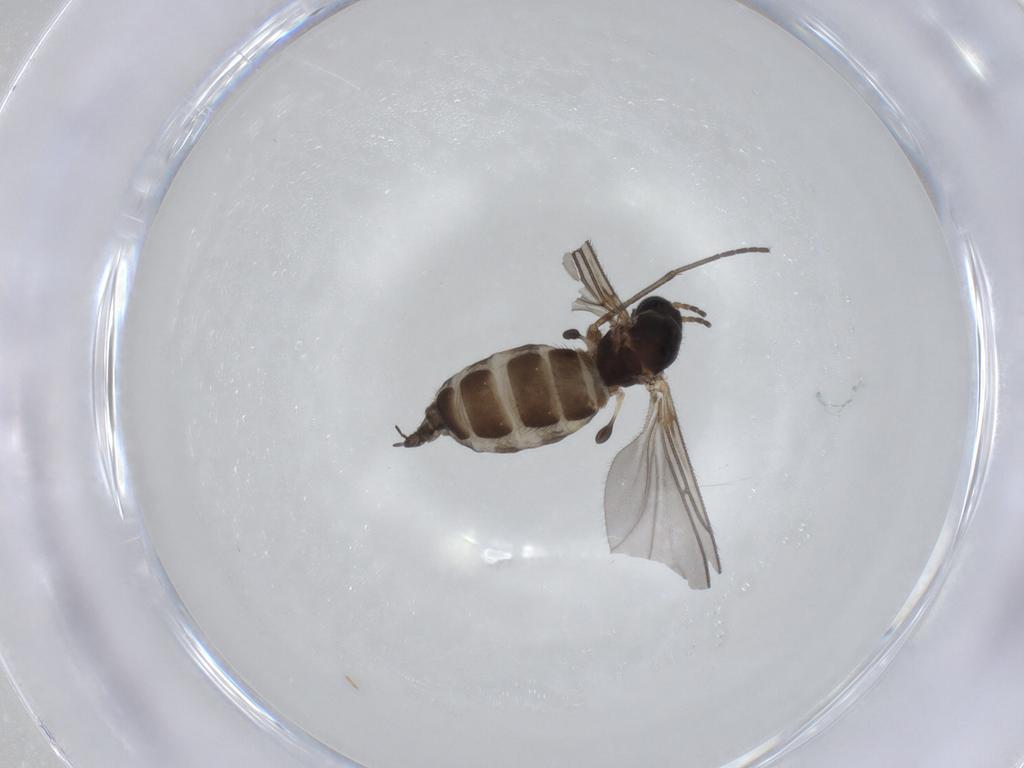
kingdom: Animalia
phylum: Arthropoda
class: Insecta
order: Diptera
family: Sciaridae
